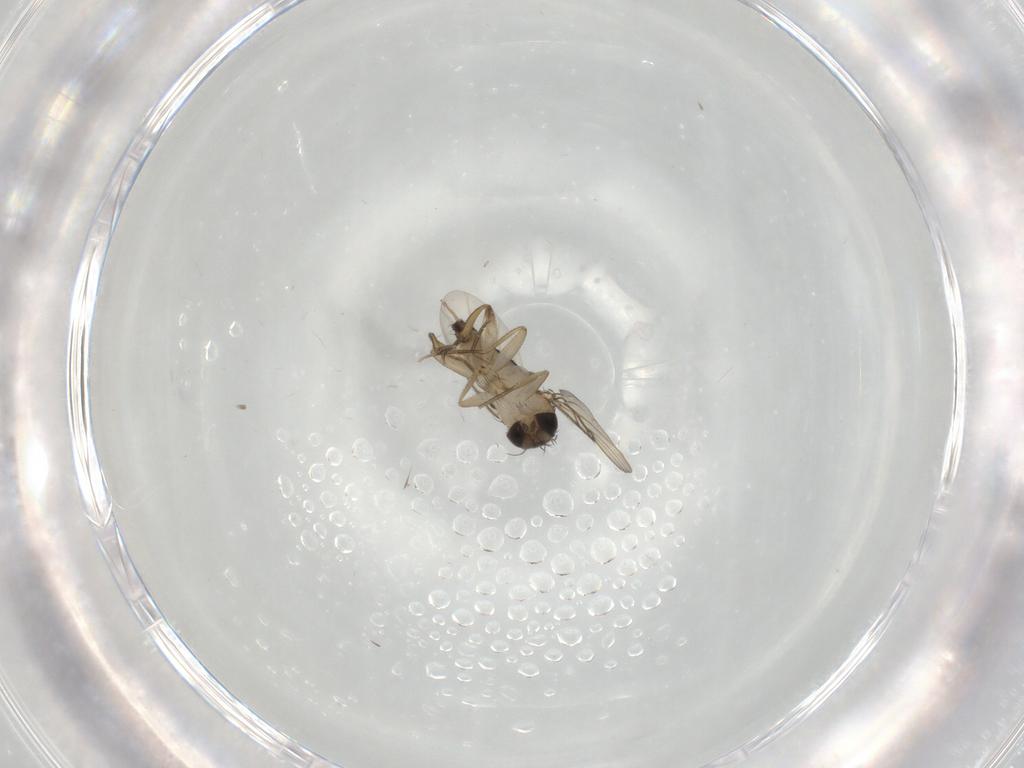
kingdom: Animalia
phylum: Arthropoda
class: Insecta
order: Diptera
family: Phoridae
